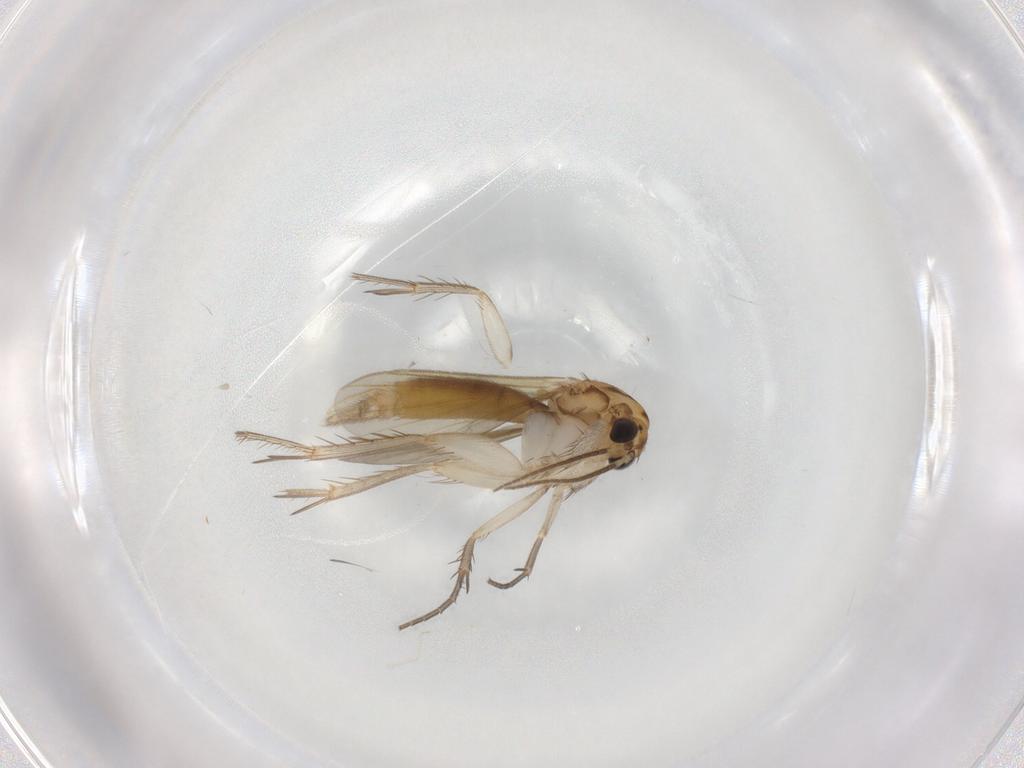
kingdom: Animalia
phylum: Arthropoda
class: Insecta
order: Diptera
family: Mycetophilidae
